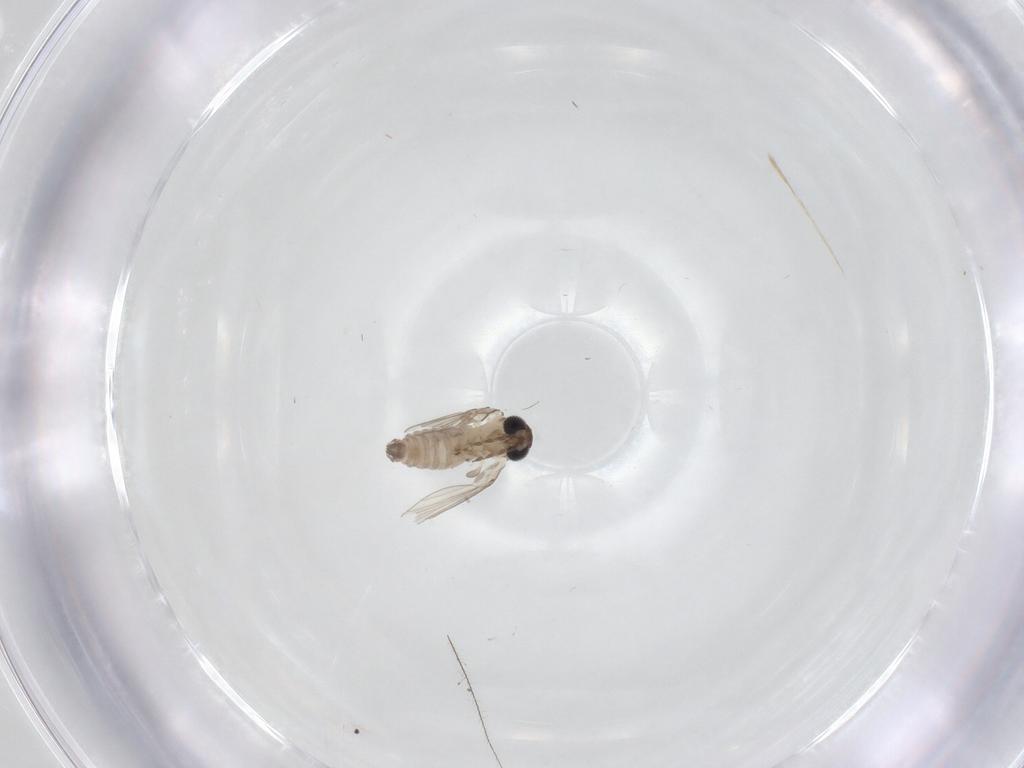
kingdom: Animalia
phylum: Arthropoda
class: Insecta
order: Diptera
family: Psychodidae
